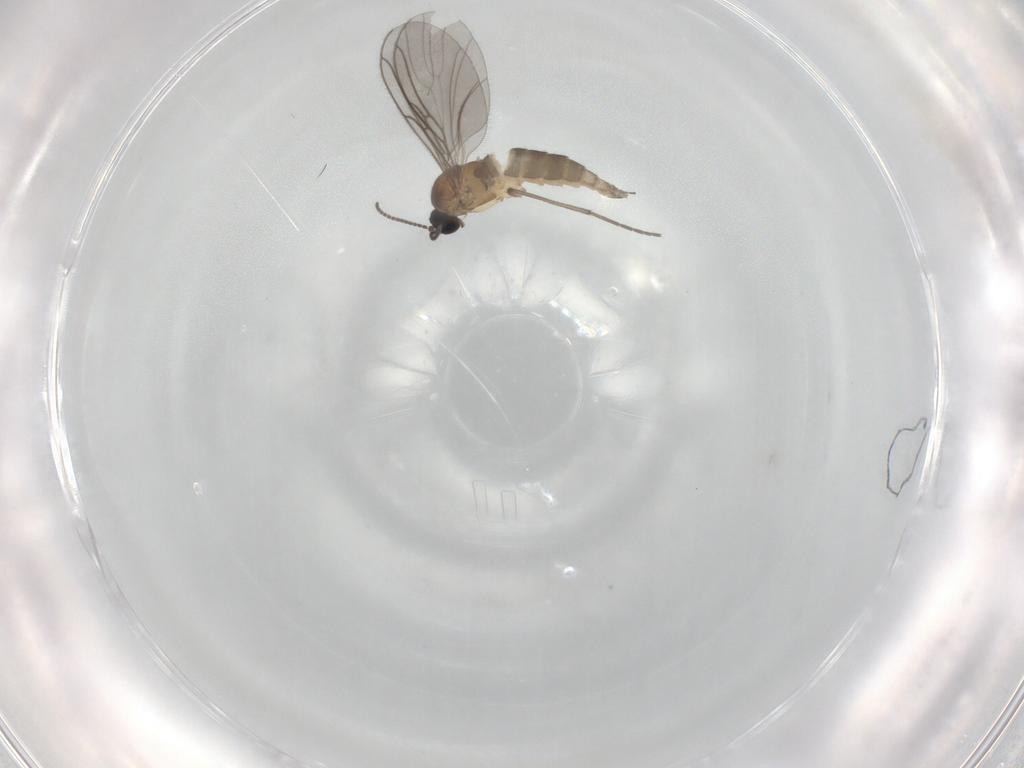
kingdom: Animalia
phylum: Arthropoda
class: Insecta
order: Diptera
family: Sciaridae
